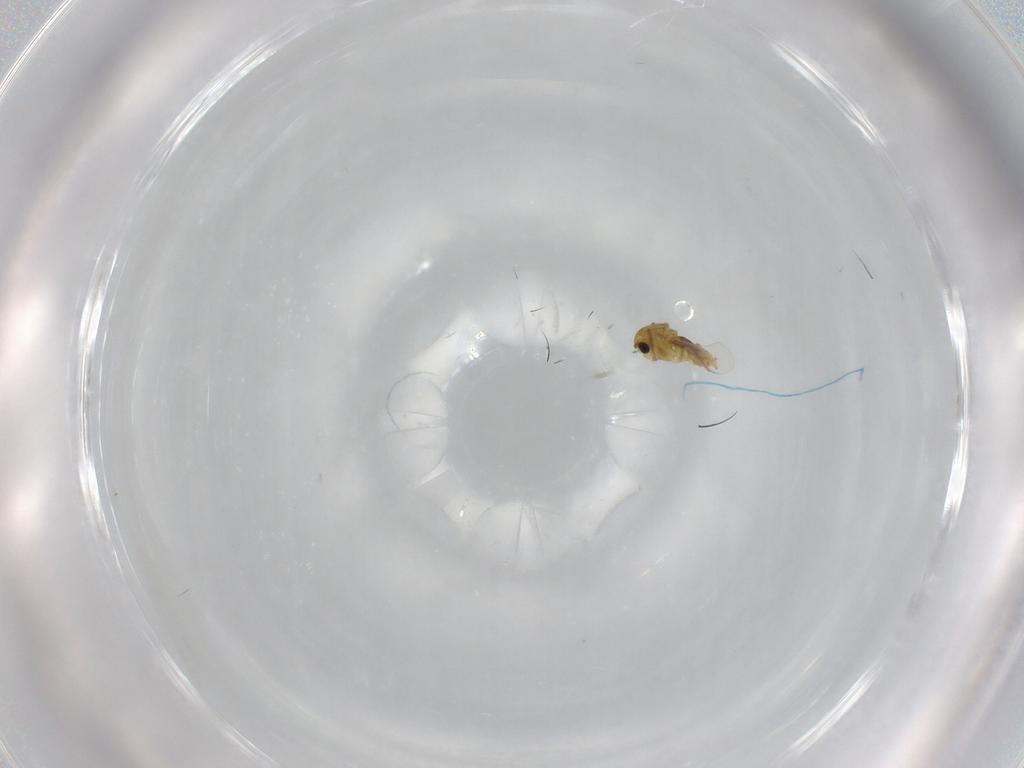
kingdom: Animalia
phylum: Arthropoda
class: Insecta
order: Diptera
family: Chironomidae
